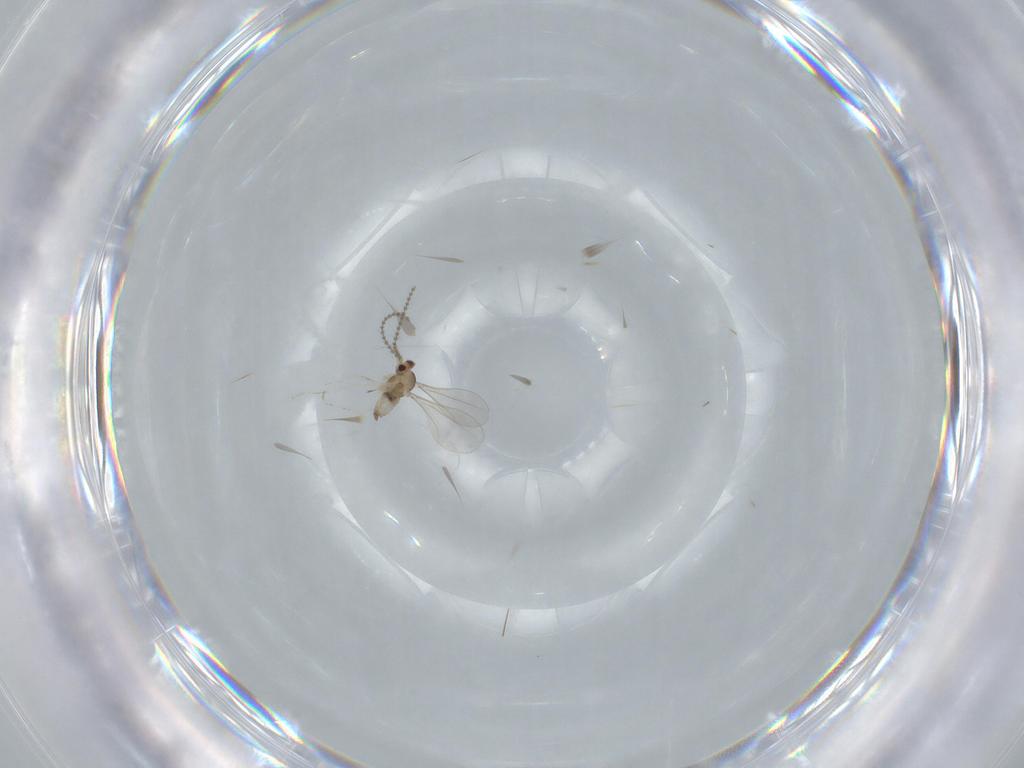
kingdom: Animalia
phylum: Arthropoda
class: Insecta
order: Diptera
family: Cecidomyiidae
